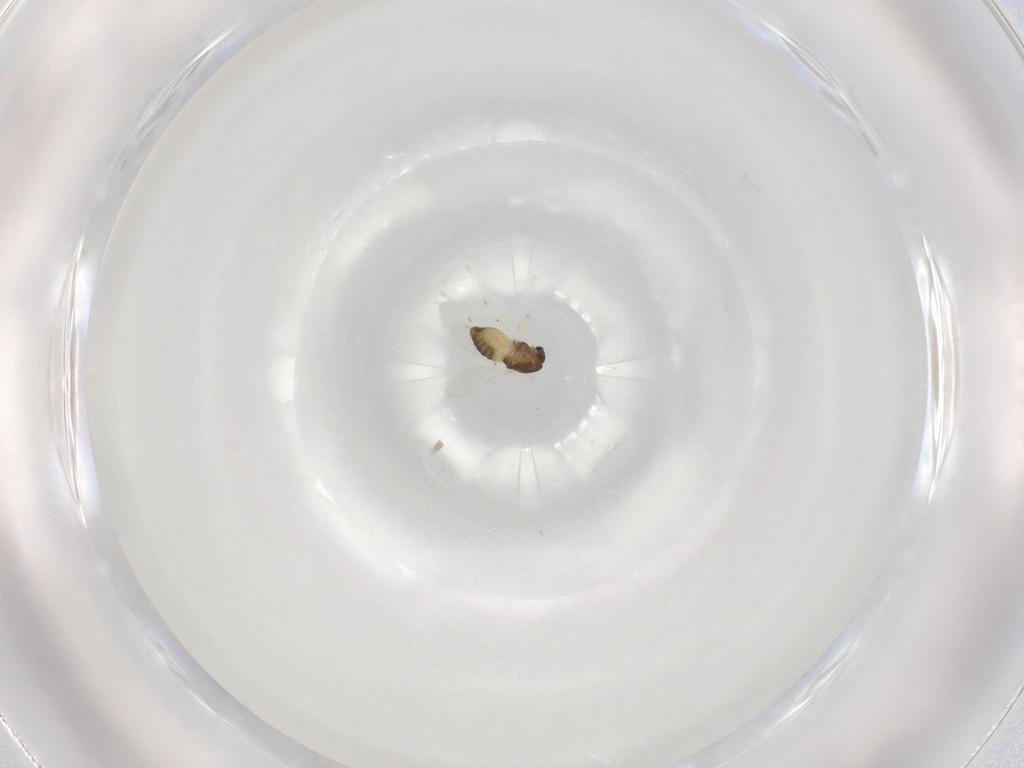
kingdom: Animalia
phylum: Arthropoda
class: Insecta
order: Diptera
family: Chironomidae
